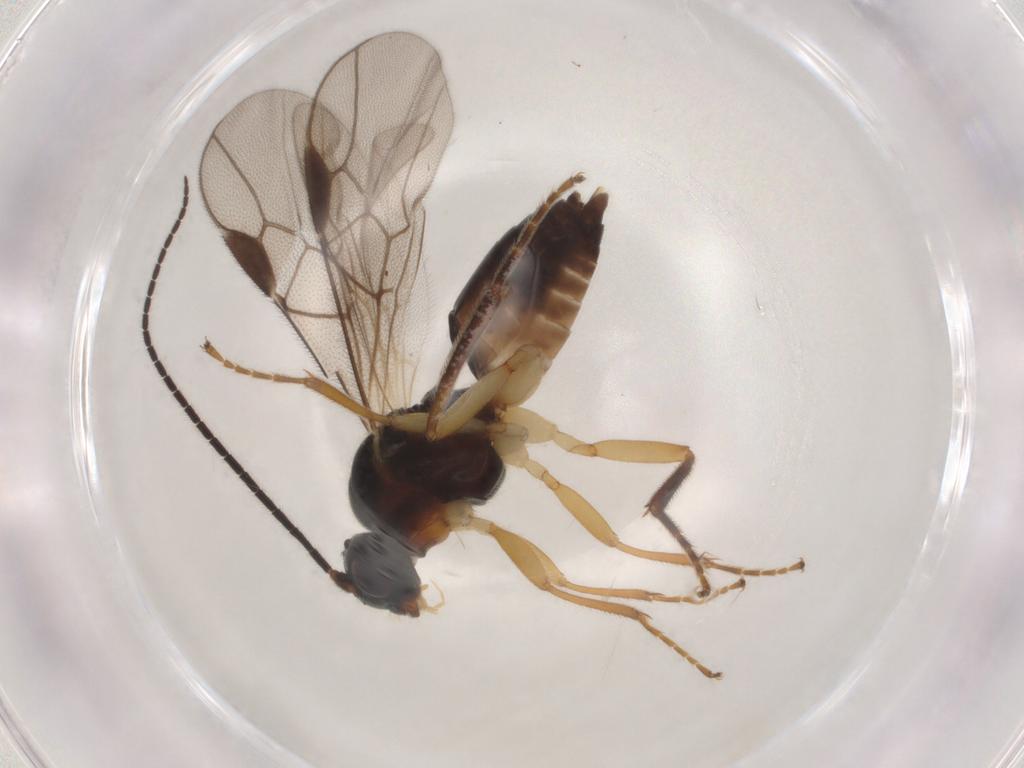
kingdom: Animalia
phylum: Arthropoda
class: Insecta
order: Hymenoptera
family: Braconidae
